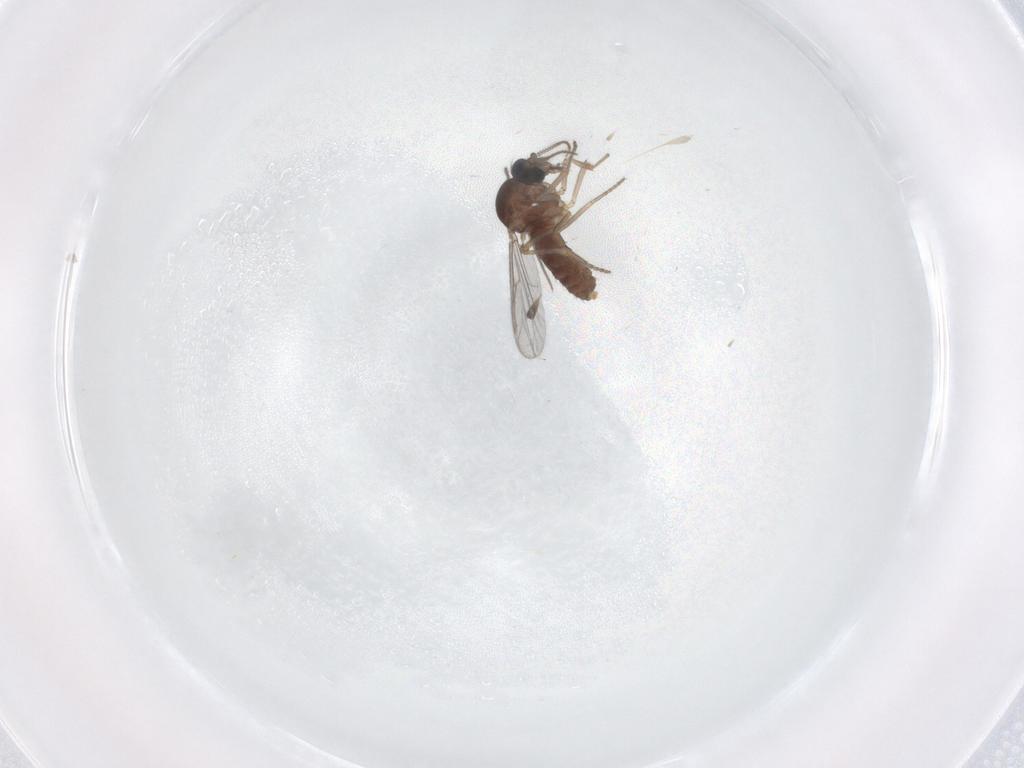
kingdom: Animalia
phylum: Arthropoda
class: Insecta
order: Diptera
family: Ceratopogonidae
